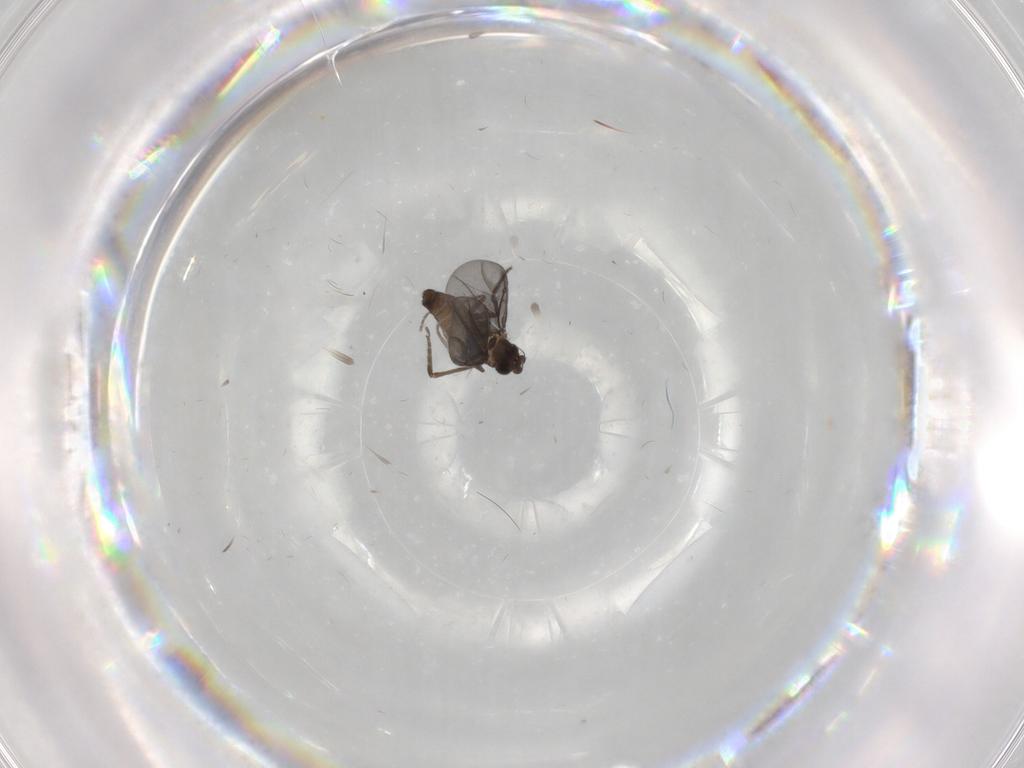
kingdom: Animalia
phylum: Arthropoda
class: Insecta
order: Diptera
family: Phoridae
